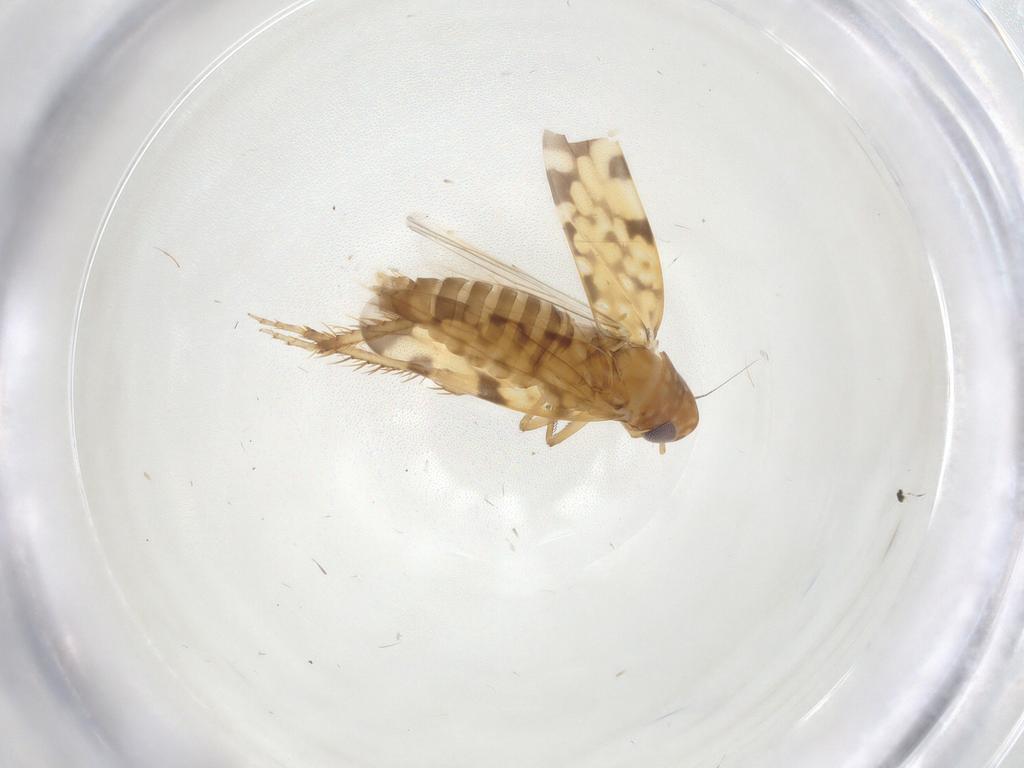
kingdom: Animalia
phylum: Arthropoda
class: Insecta
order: Hemiptera
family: Cicadellidae
